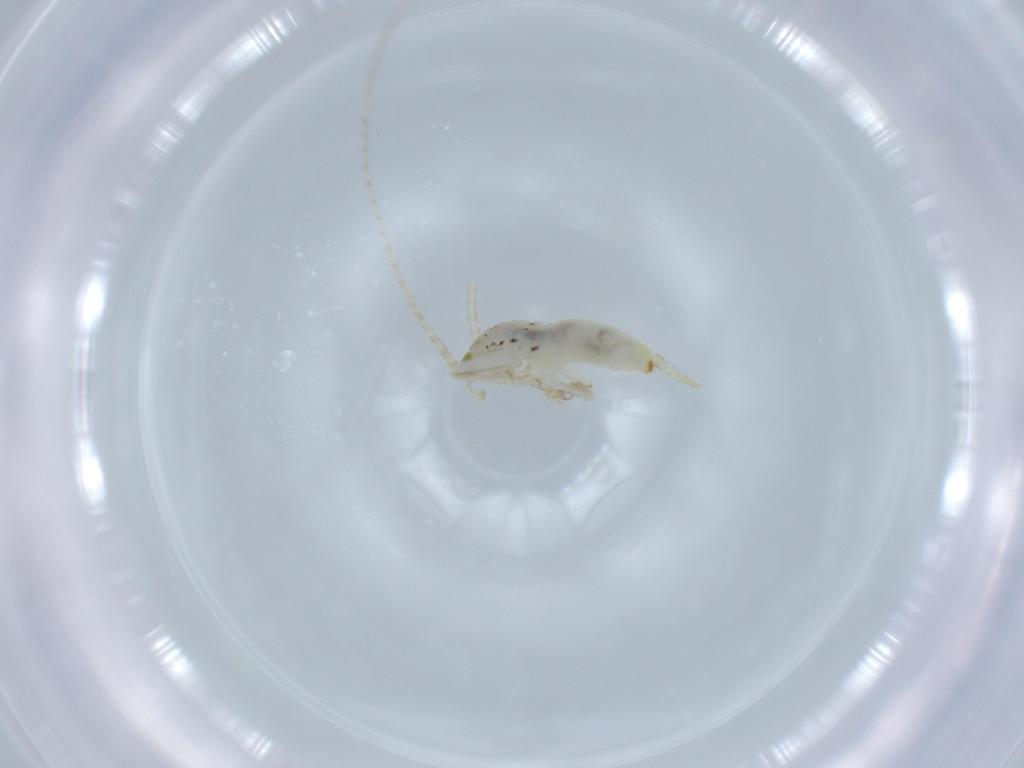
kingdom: Animalia
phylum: Arthropoda
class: Insecta
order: Orthoptera
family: Trigonidiidae
